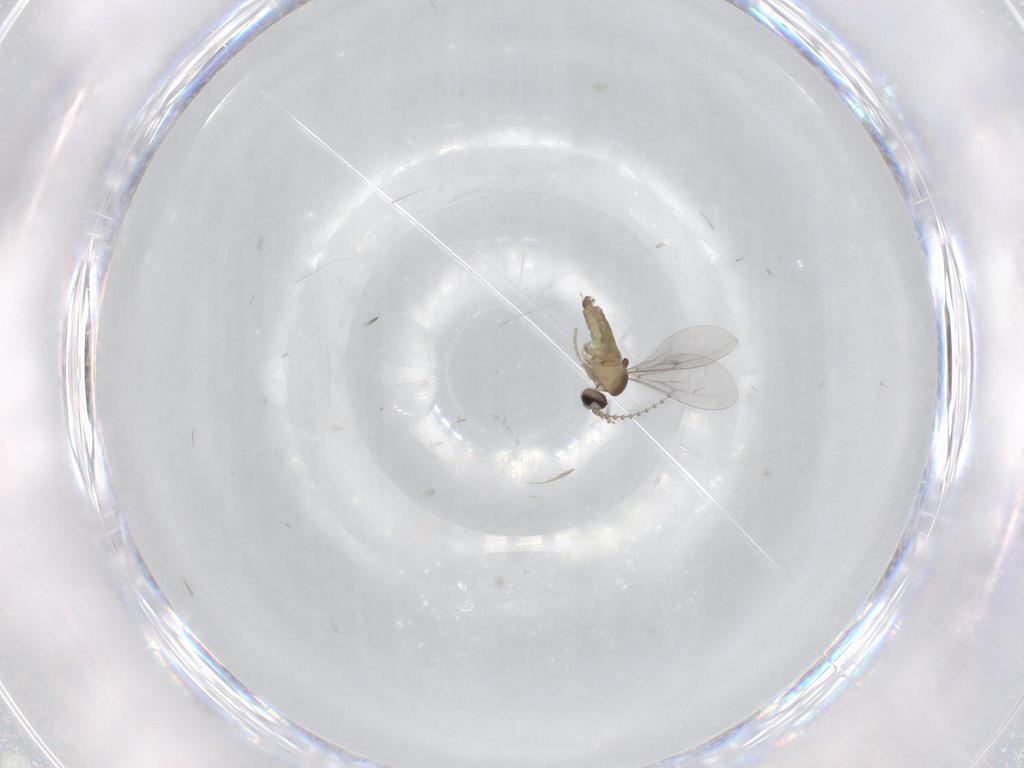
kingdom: Animalia
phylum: Arthropoda
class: Insecta
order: Diptera
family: Cecidomyiidae
